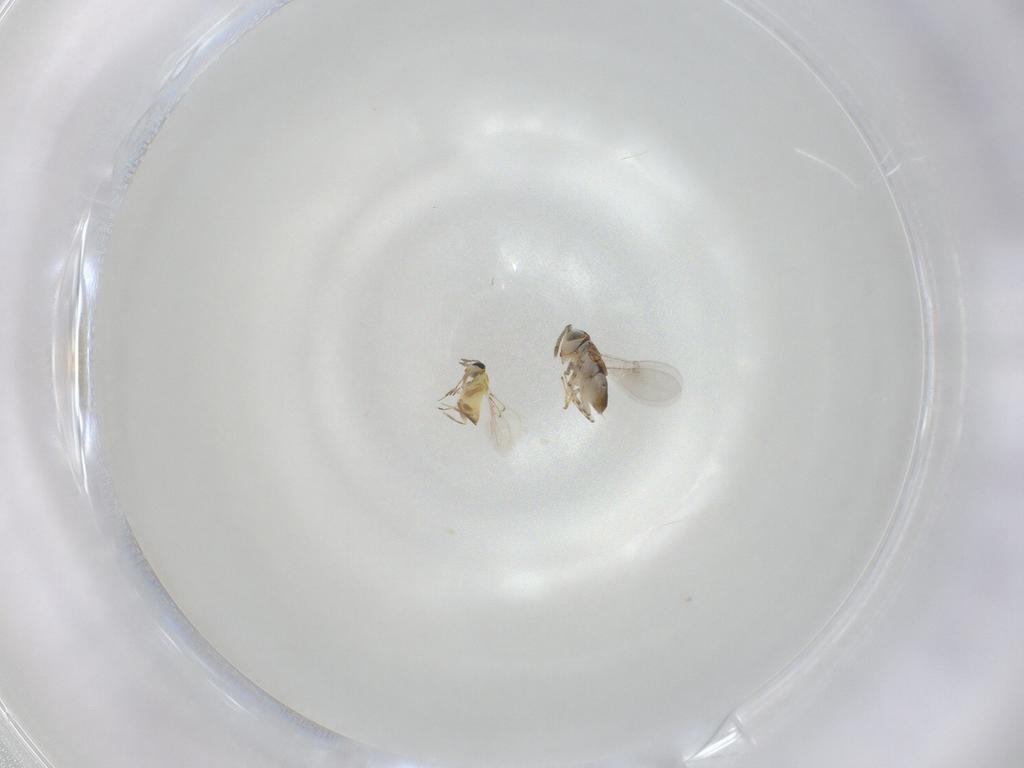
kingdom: Animalia
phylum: Arthropoda
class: Insecta
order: Hymenoptera
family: Encyrtidae
